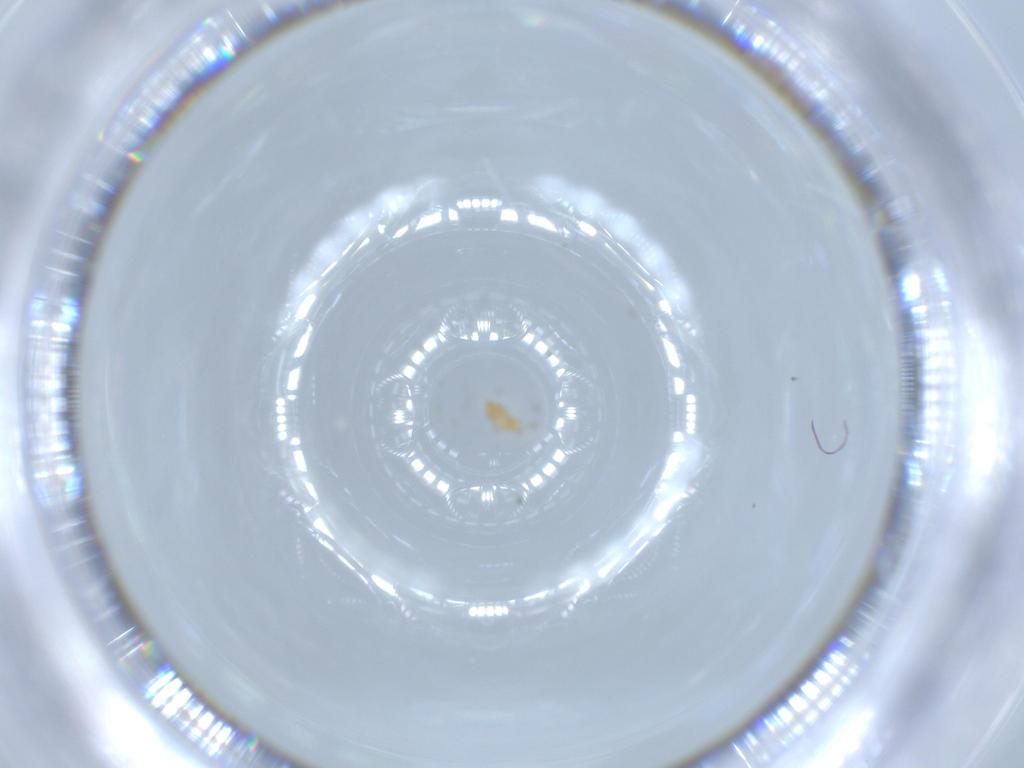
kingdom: Animalia
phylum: Arthropoda
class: Insecta
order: Thysanoptera
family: Thripidae
